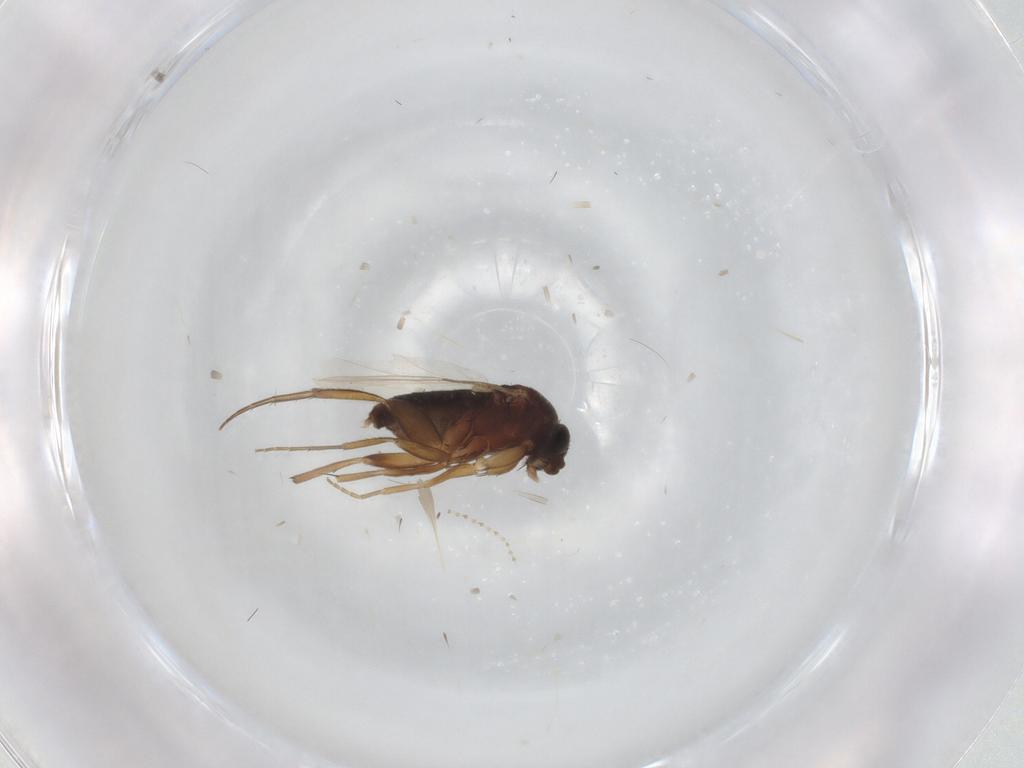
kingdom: Animalia
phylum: Arthropoda
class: Insecta
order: Diptera
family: Cecidomyiidae
